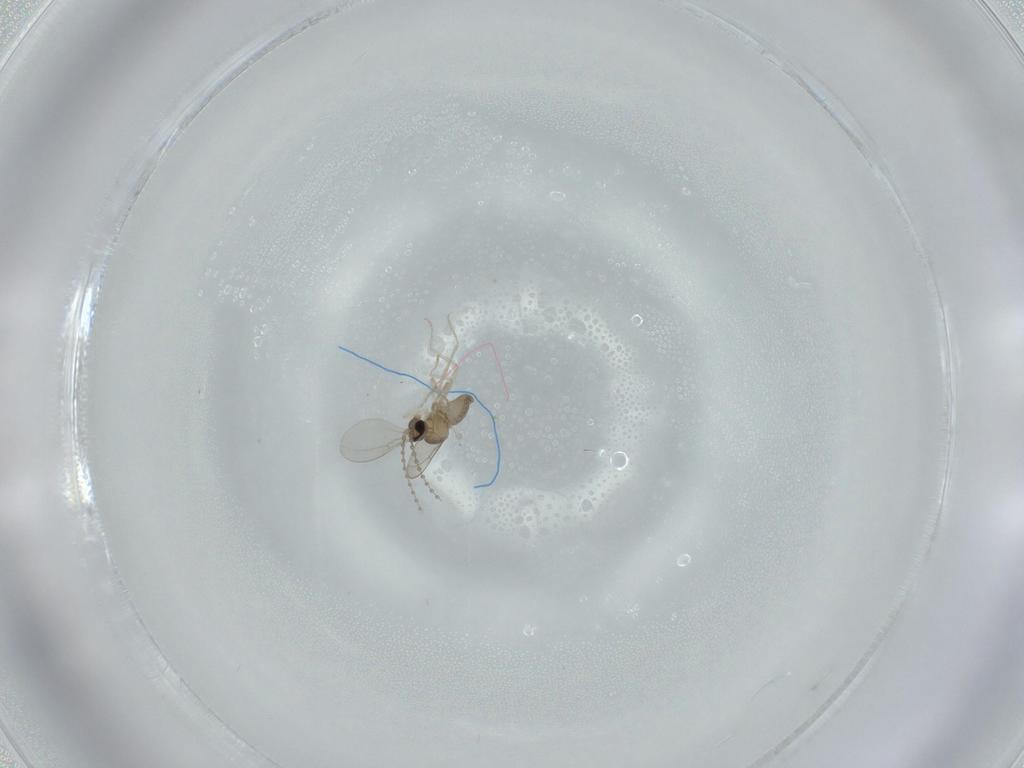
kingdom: Animalia
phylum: Arthropoda
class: Insecta
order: Diptera
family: Cecidomyiidae
